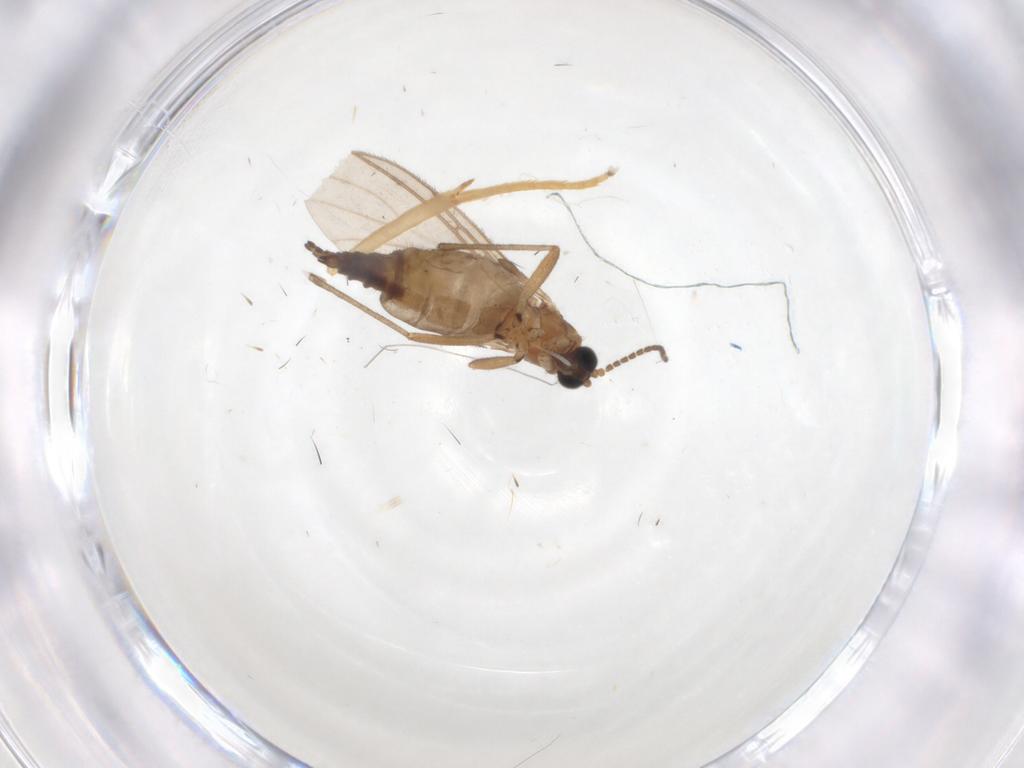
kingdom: Animalia
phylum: Arthropoda
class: Insecta
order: Diptera
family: Sciaridae
